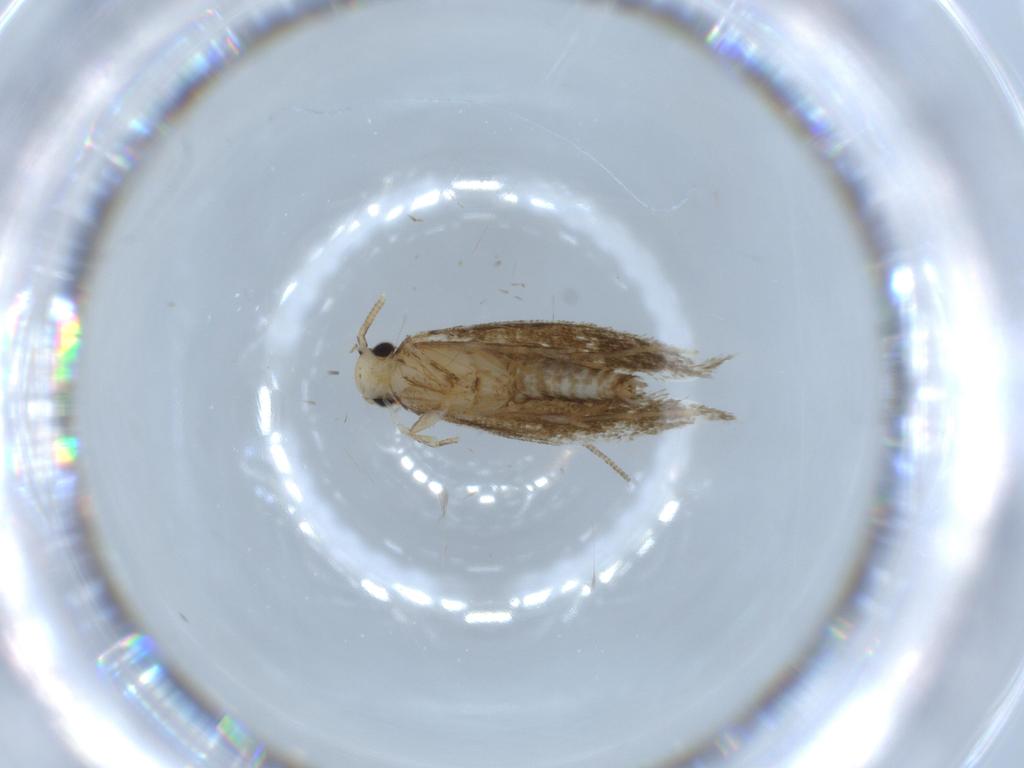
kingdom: Animalia
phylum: Arthropoda
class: Insecta
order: Lepidoptera
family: Tineidae
